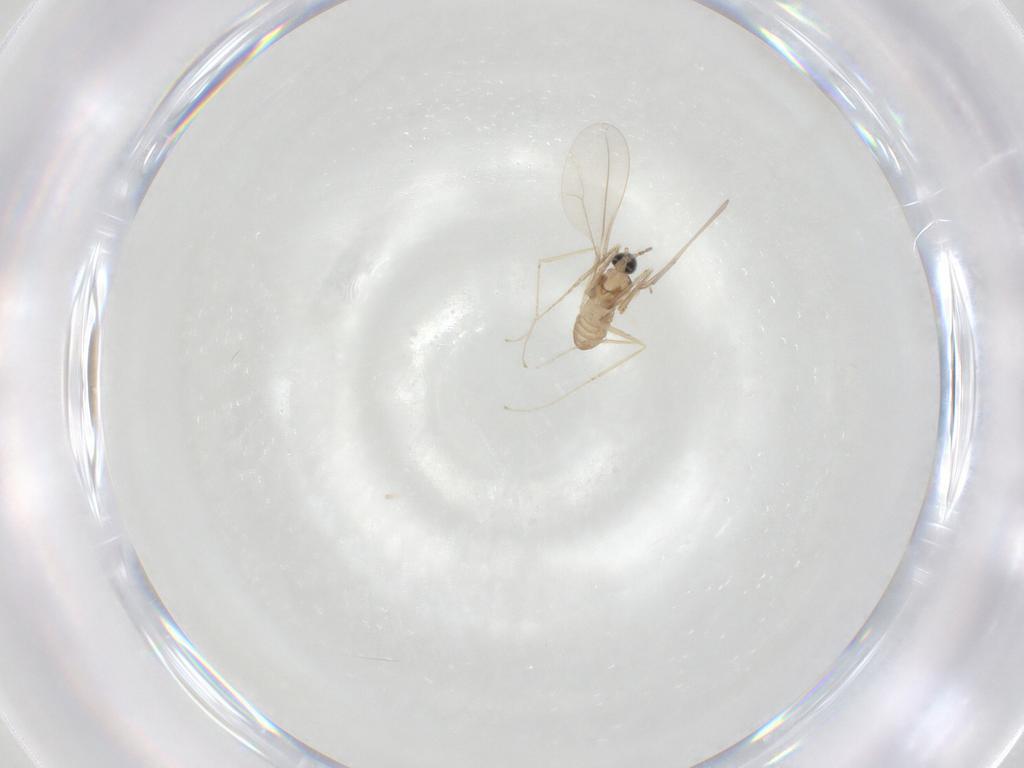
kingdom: Animalia
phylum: Arthropoda
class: Insecta
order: Diptera
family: Cecidomyiidae
